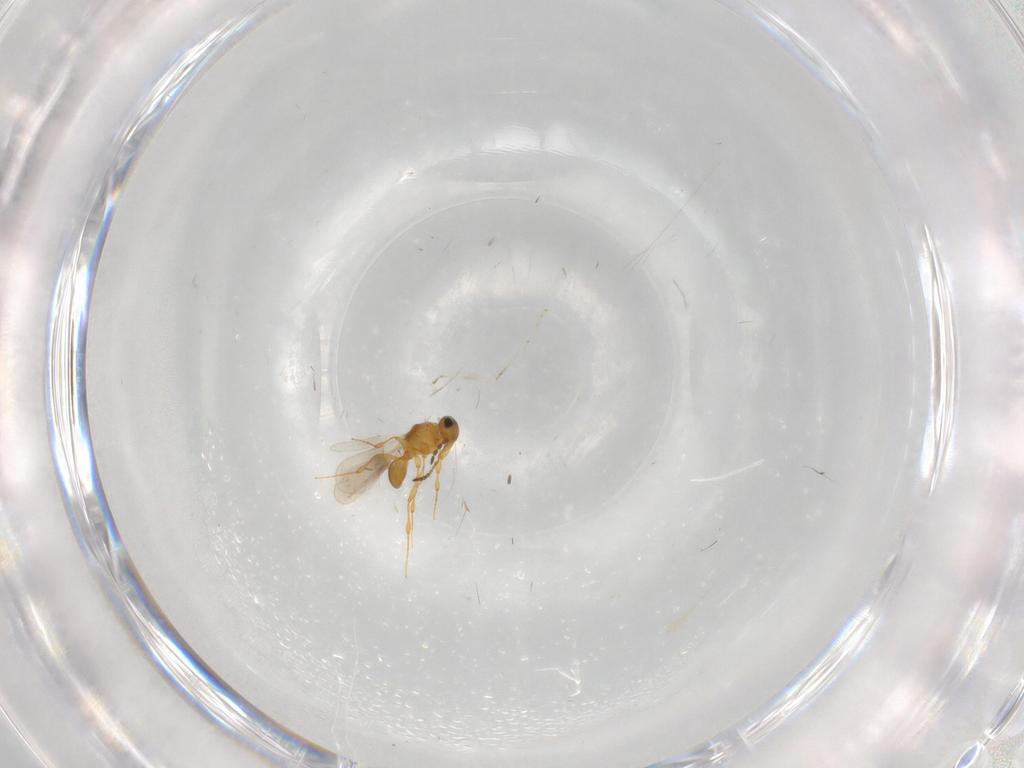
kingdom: Animalia
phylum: Arthropoda
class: Insecta
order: Hymenoptera
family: Platygastridae
